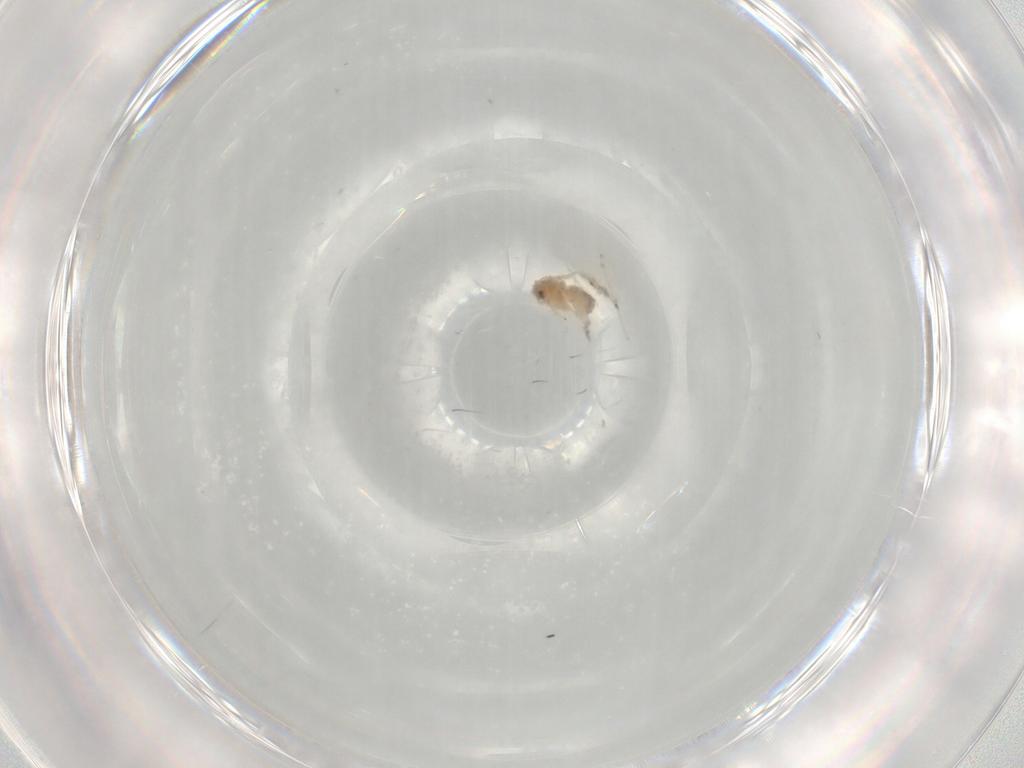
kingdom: Animalia
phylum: Arthropoda
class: Insecta
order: Hemiptera
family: Aleyrodidae
